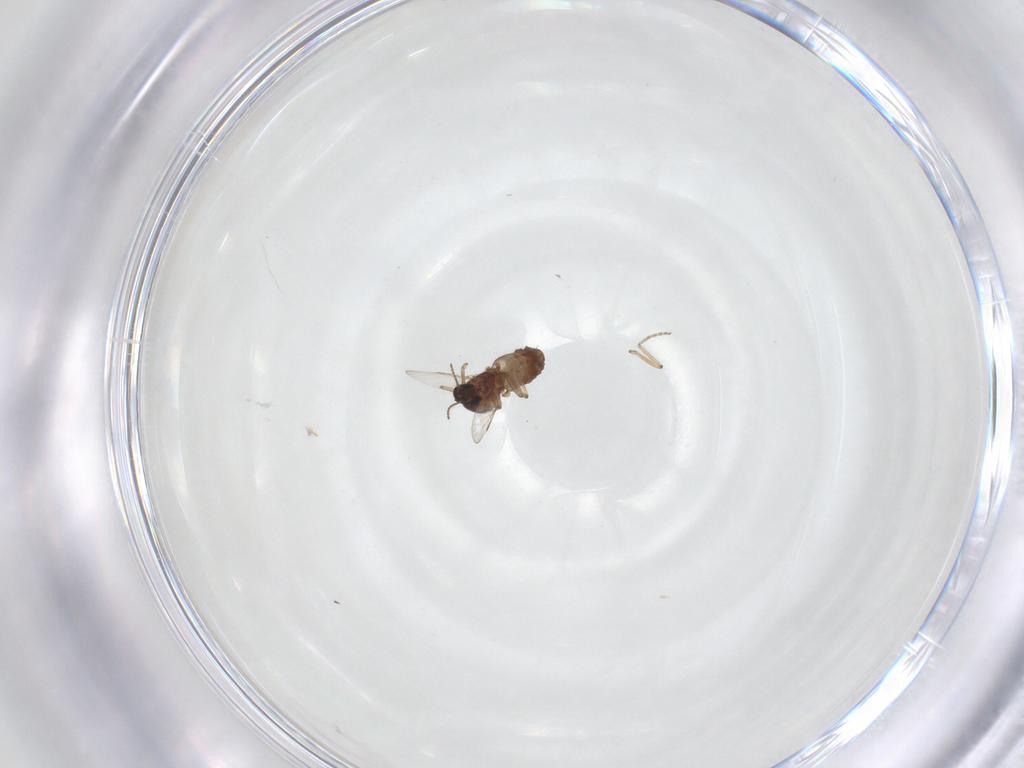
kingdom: Animalia
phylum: Arthropoda
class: Insecta
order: Diptera
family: Ceratopogonidae
